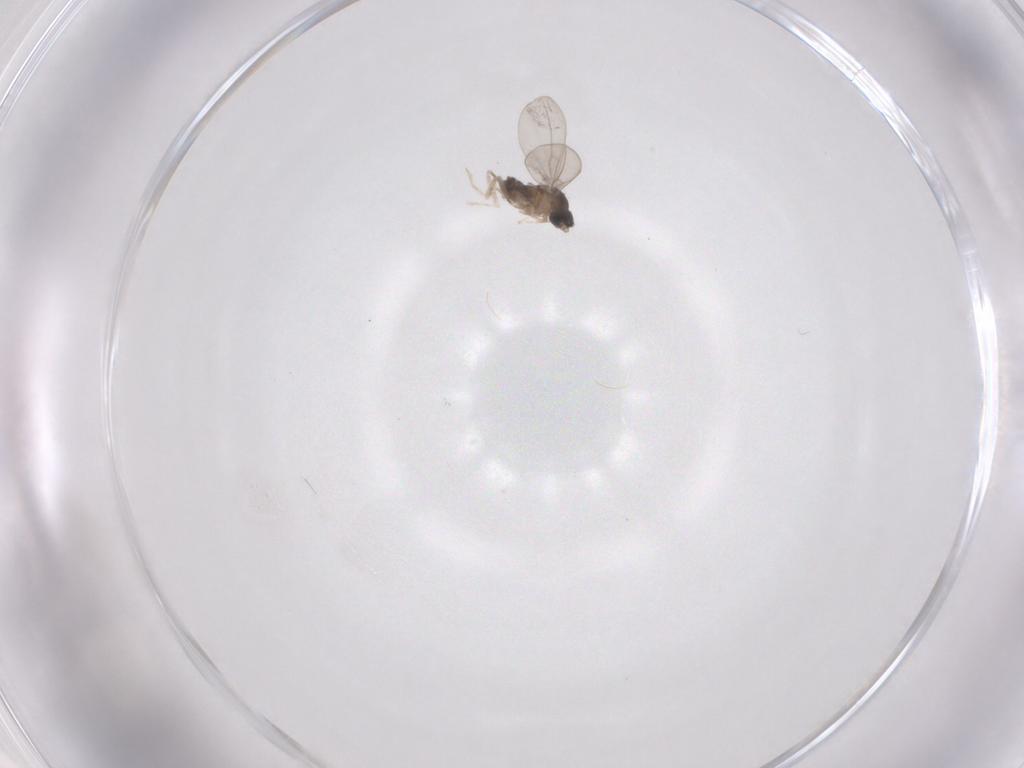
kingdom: Animalia
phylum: Arthropoda
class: Insecta
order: Diptera
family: Cecidomyiidae
